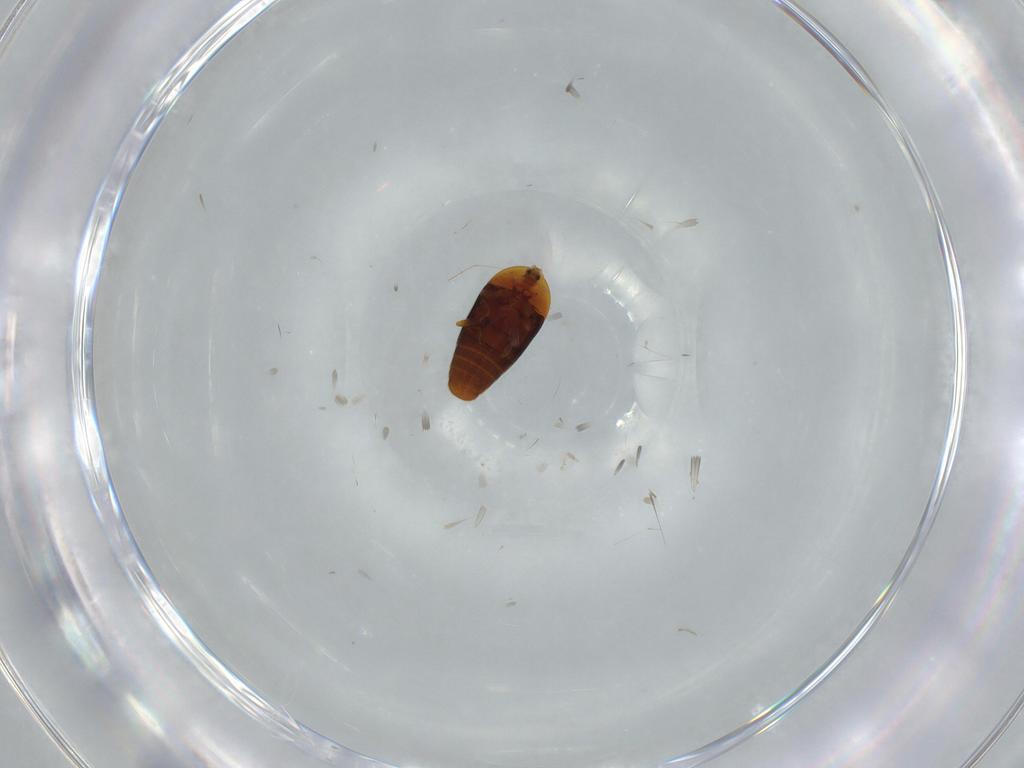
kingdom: Animalia
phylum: Arthropoda
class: Insecta
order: Coleoptera
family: Corylophidae
